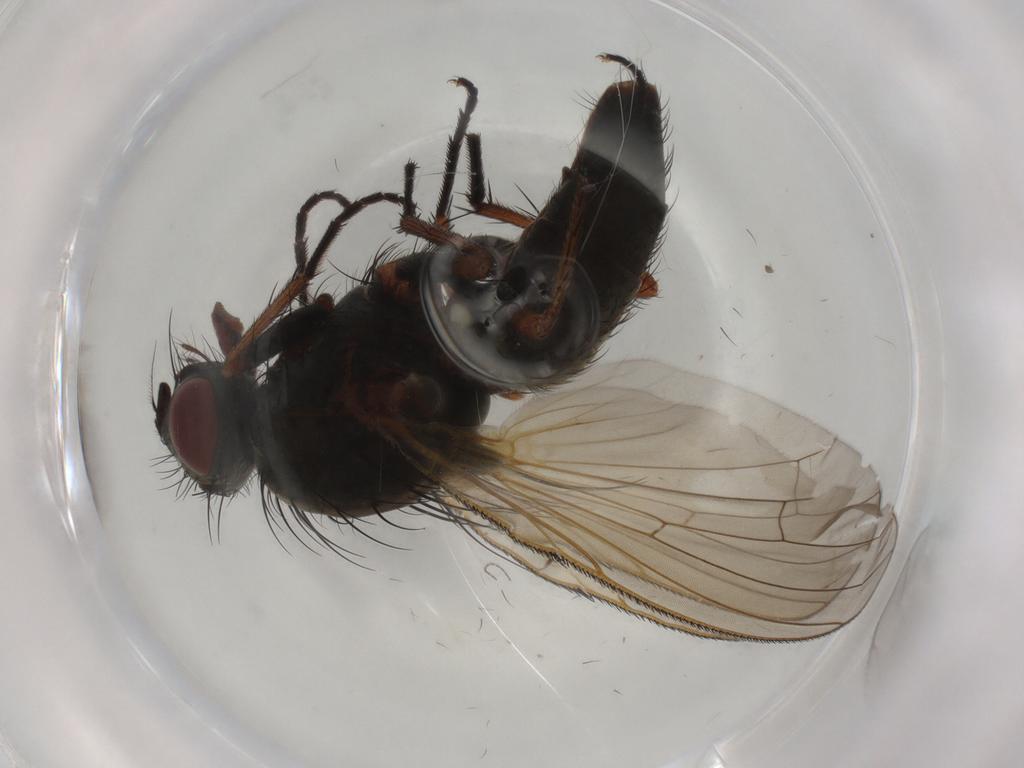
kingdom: Animalia
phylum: Arthropoda
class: Insecta
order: Diptera
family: Anthomyiidae
